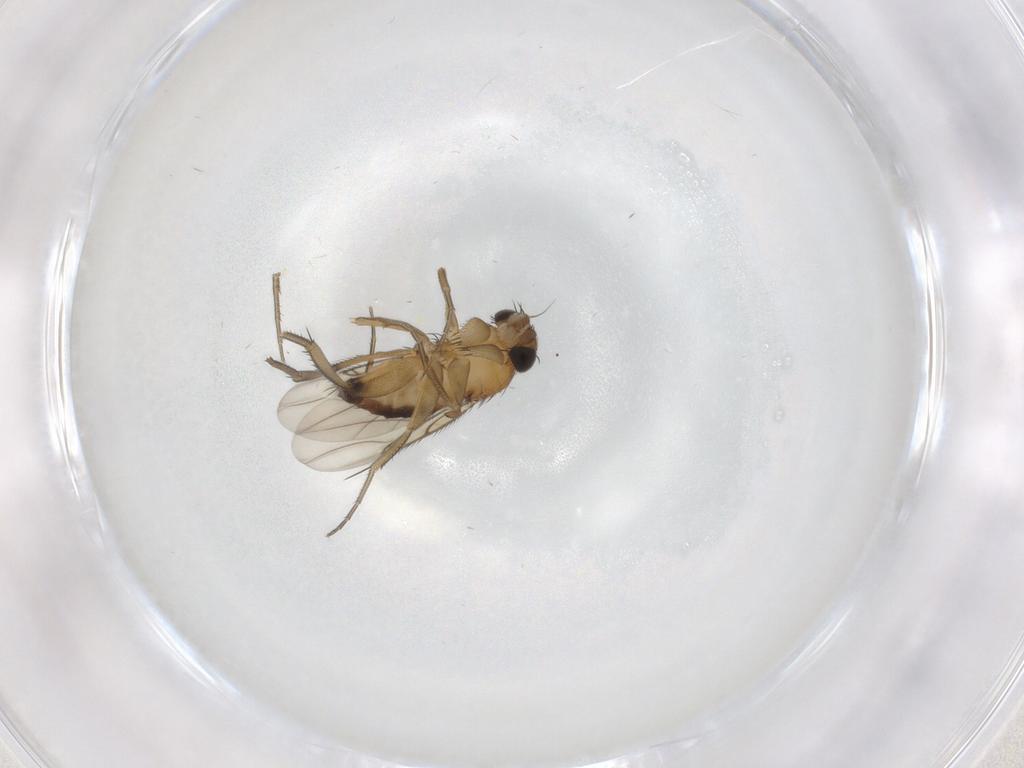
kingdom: Animalia
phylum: Arthropoda
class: Insecta
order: Diptera
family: Phoridae
